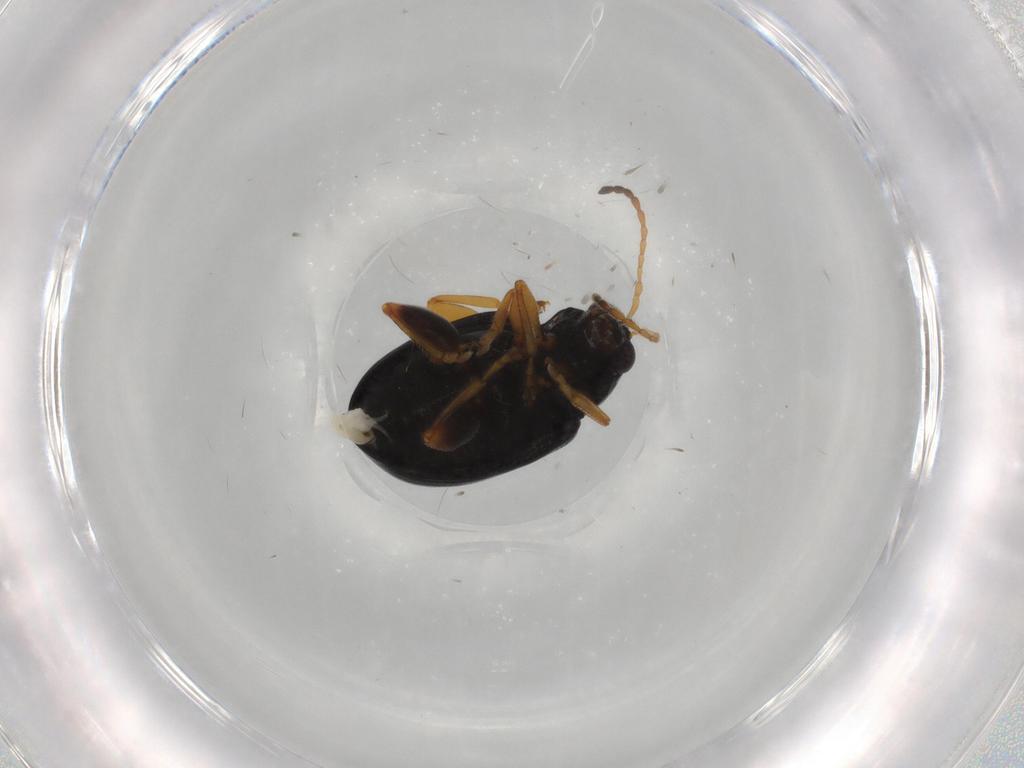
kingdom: Animalia
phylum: Arthropoda
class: Insecta
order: Coleoptera
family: Chrysomelidae
